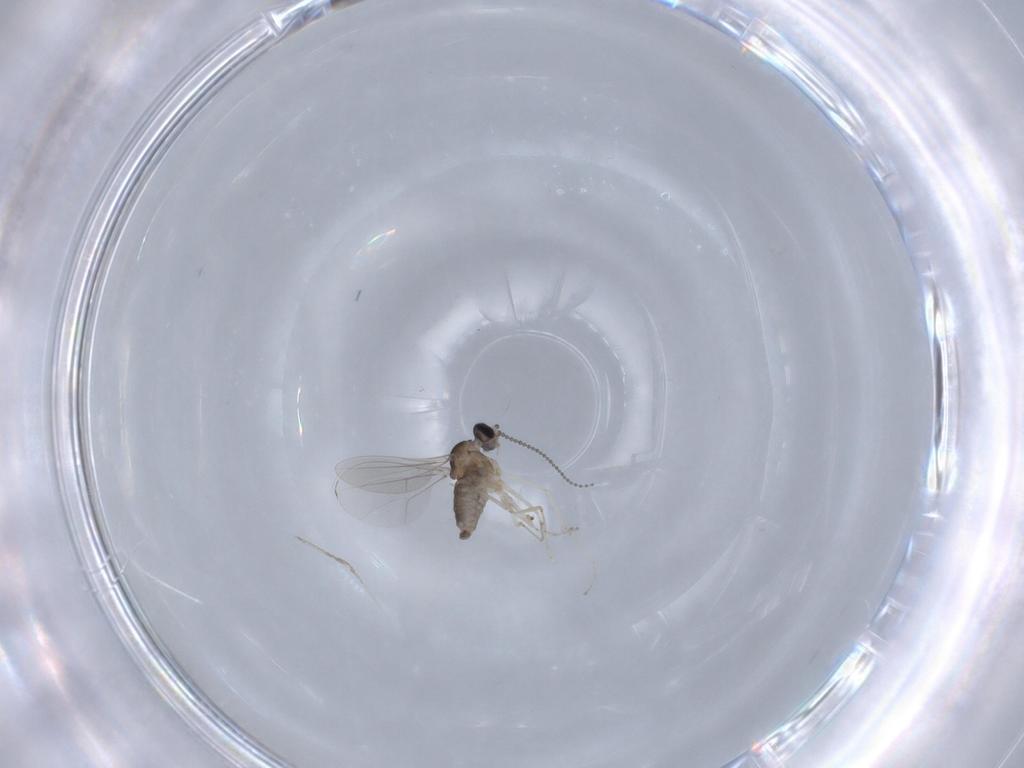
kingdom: Animalia
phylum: Arthropoda
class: Insecta
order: Diptera
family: Cecidomyiidae
